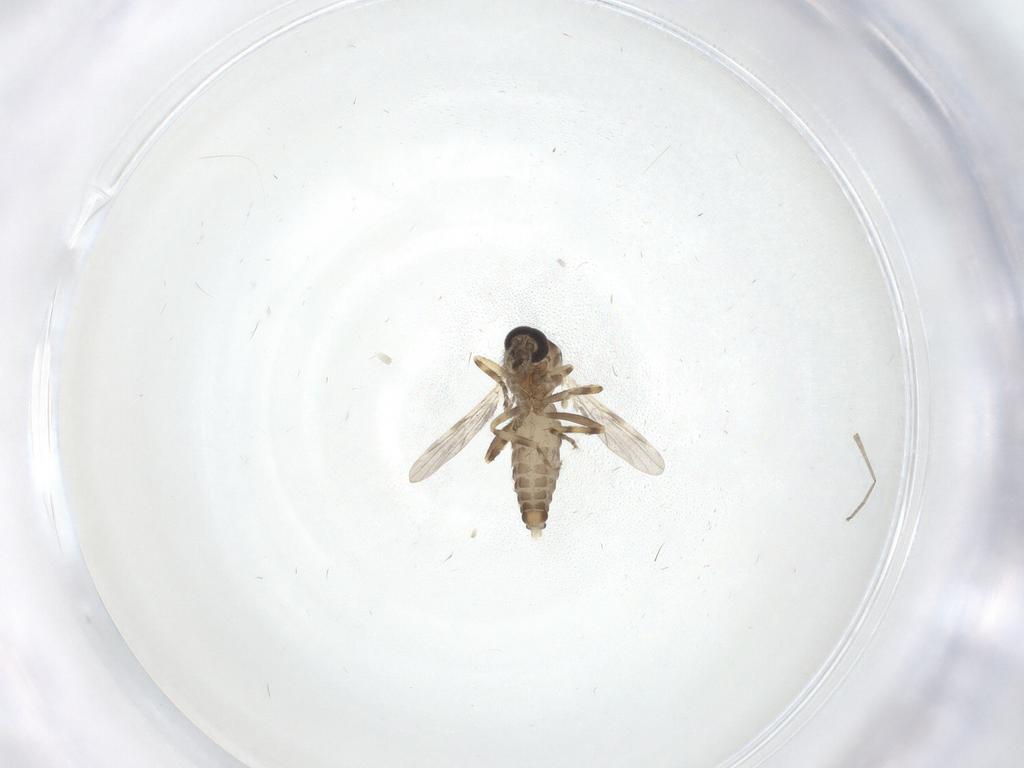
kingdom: Animalia
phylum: Arthropoda
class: Insecta
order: Diptera
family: Ceratopogonidae
